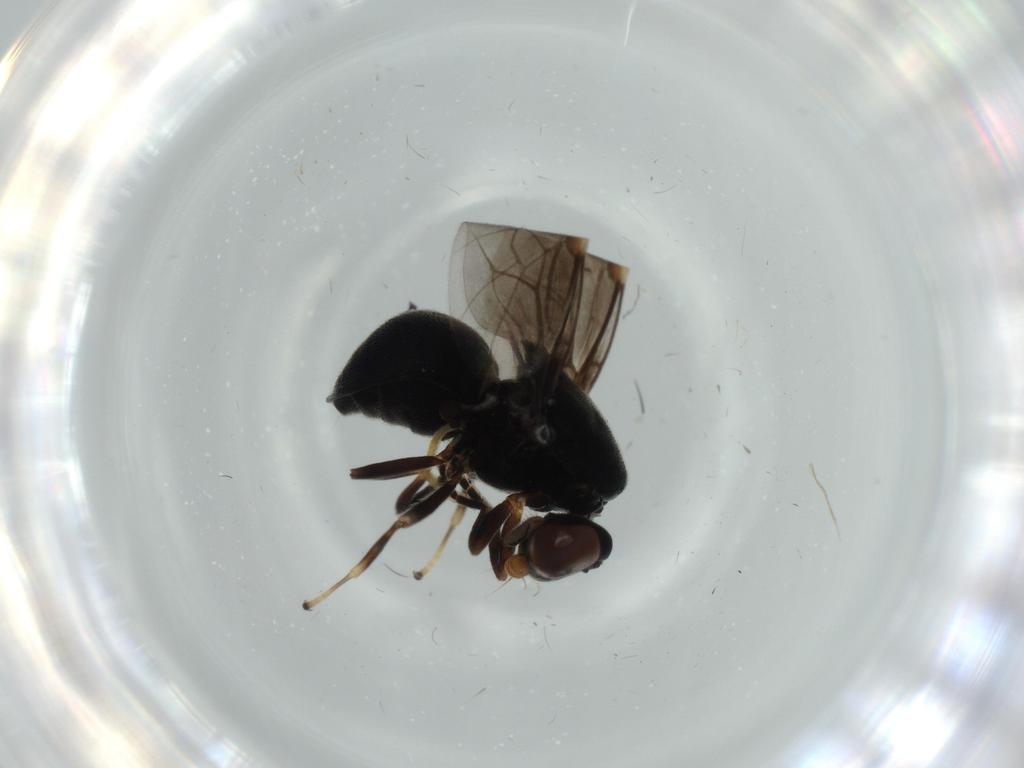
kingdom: Animalia
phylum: Arthropoda
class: Insecta
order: Diptera
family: Stratiomyidae
